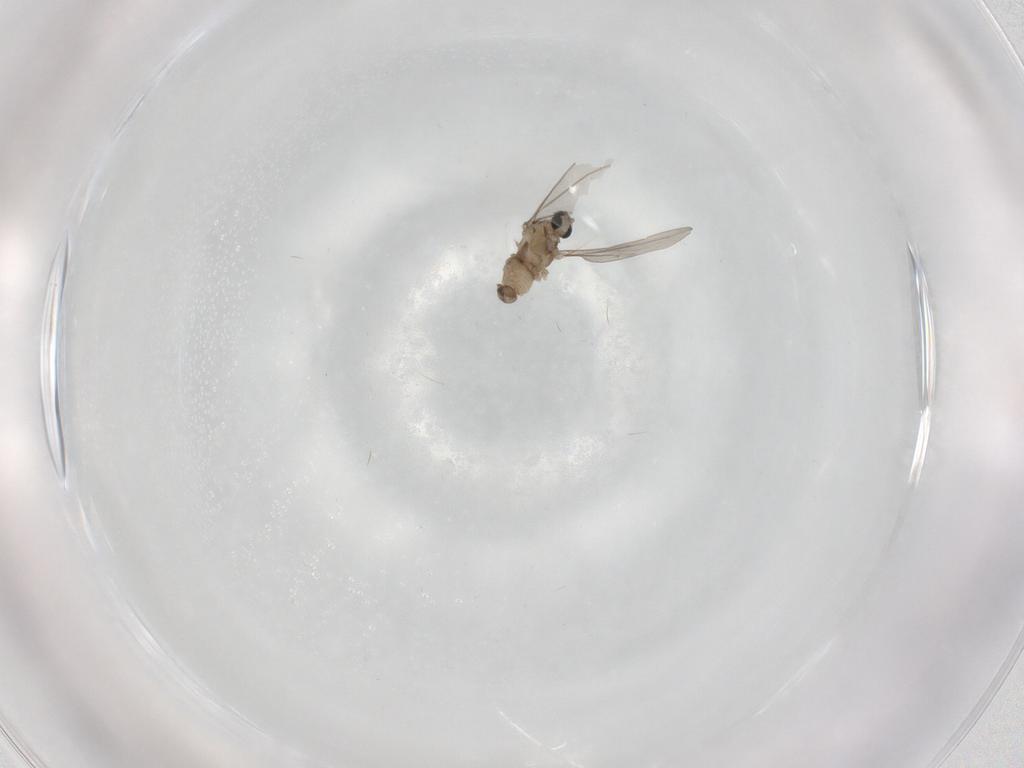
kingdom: Animalia
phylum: Arthropoda
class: Insecta
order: Diptera
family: Cecidomyiidae
